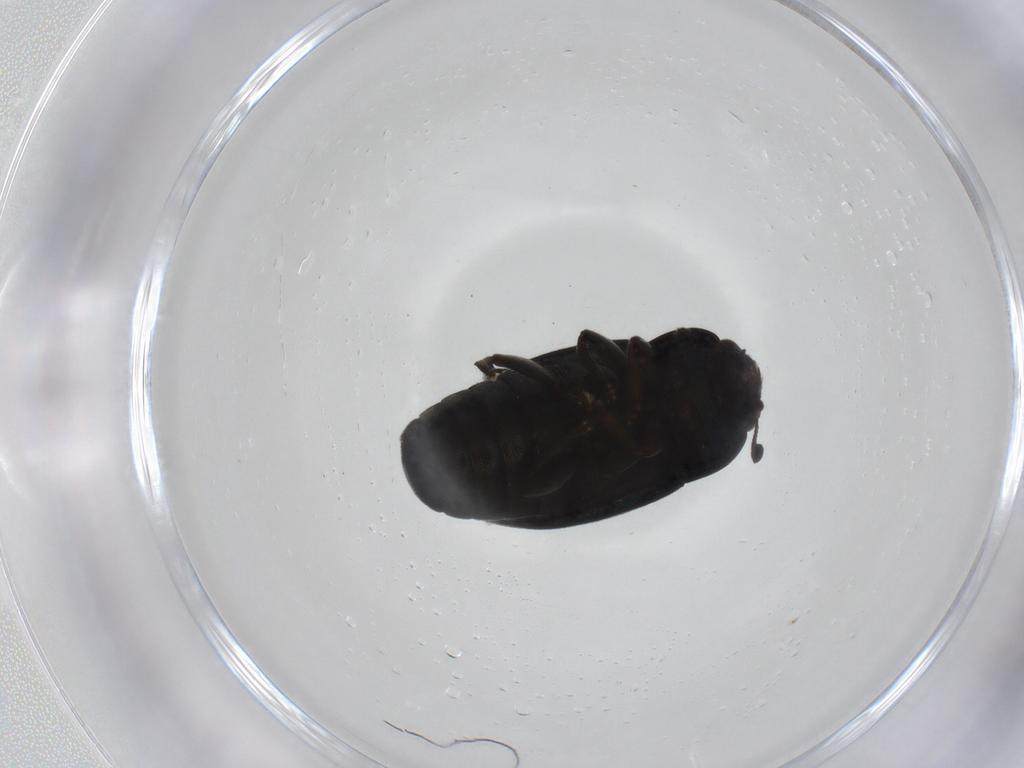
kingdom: Animalia
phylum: Arthropoda
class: Insecta
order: Coleoptera
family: Nitidulidae
